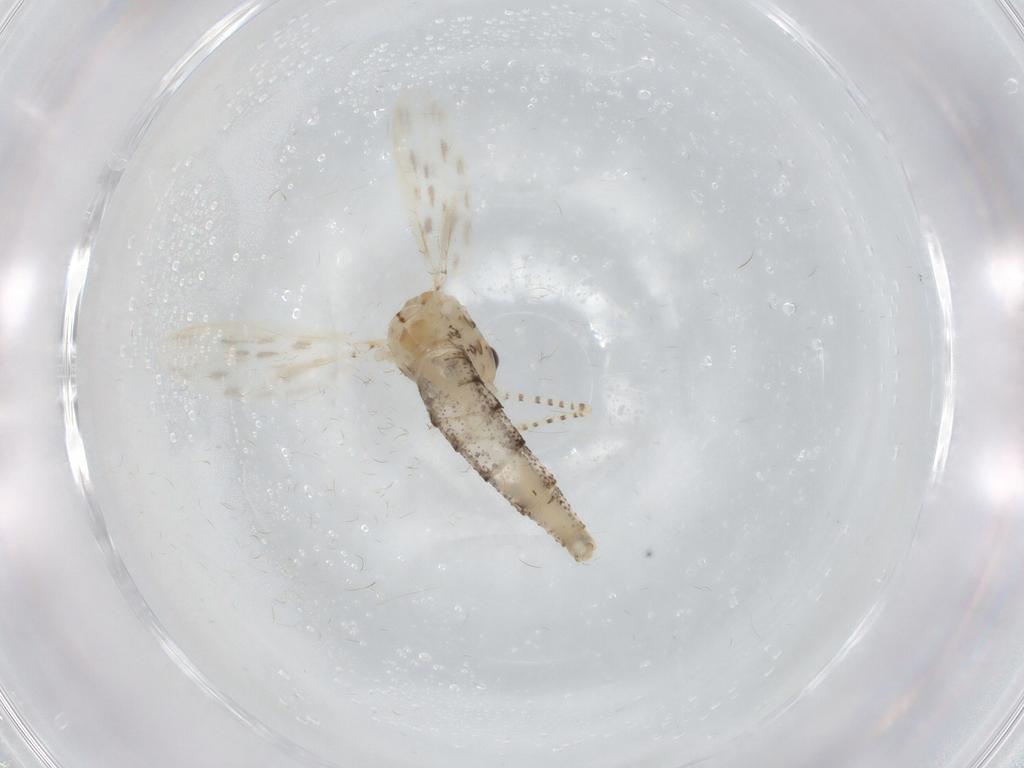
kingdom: Animalia
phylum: Arthropoda
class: Insecta
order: Diptera
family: Chaoboridae
